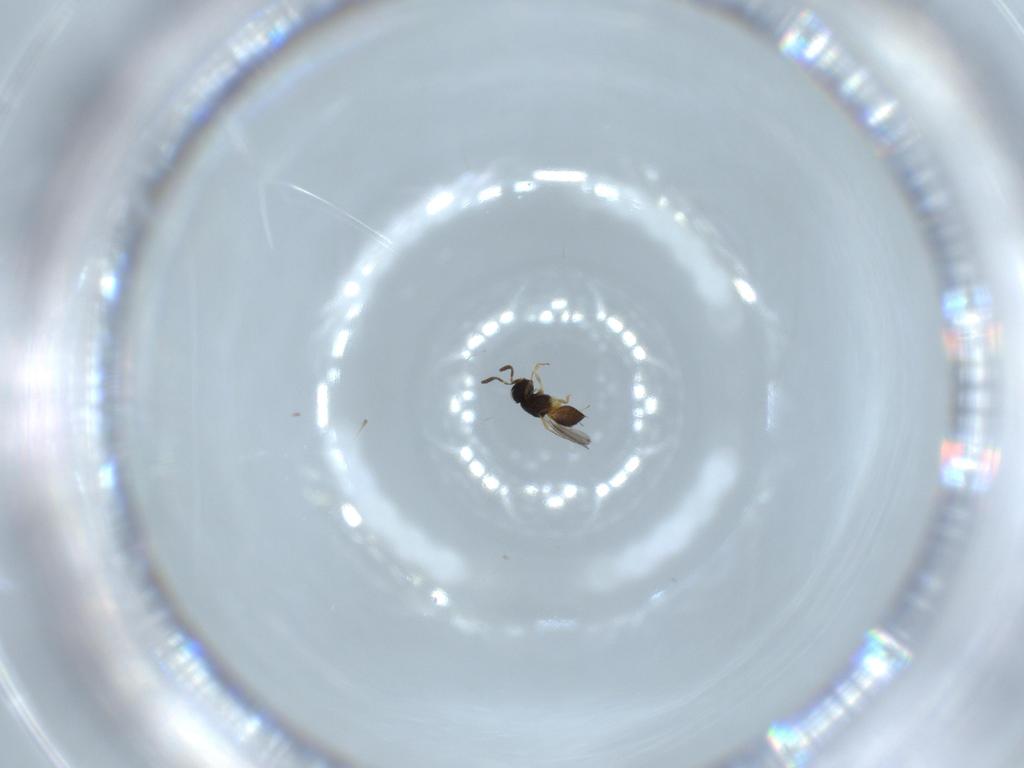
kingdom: Animalia
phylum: Arthropoda
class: Insecta
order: Hymenoptera
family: Scelionidae
